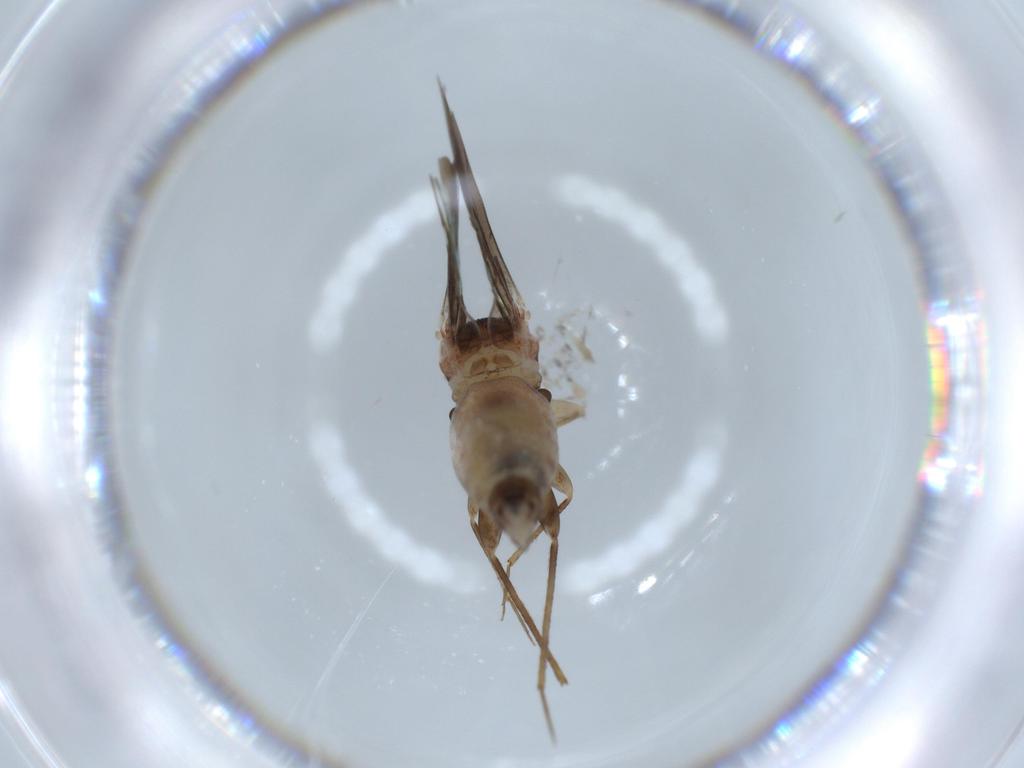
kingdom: Animalia
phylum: Arthropoda
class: Insecta
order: Psocodea
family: Lepidopsocidae
